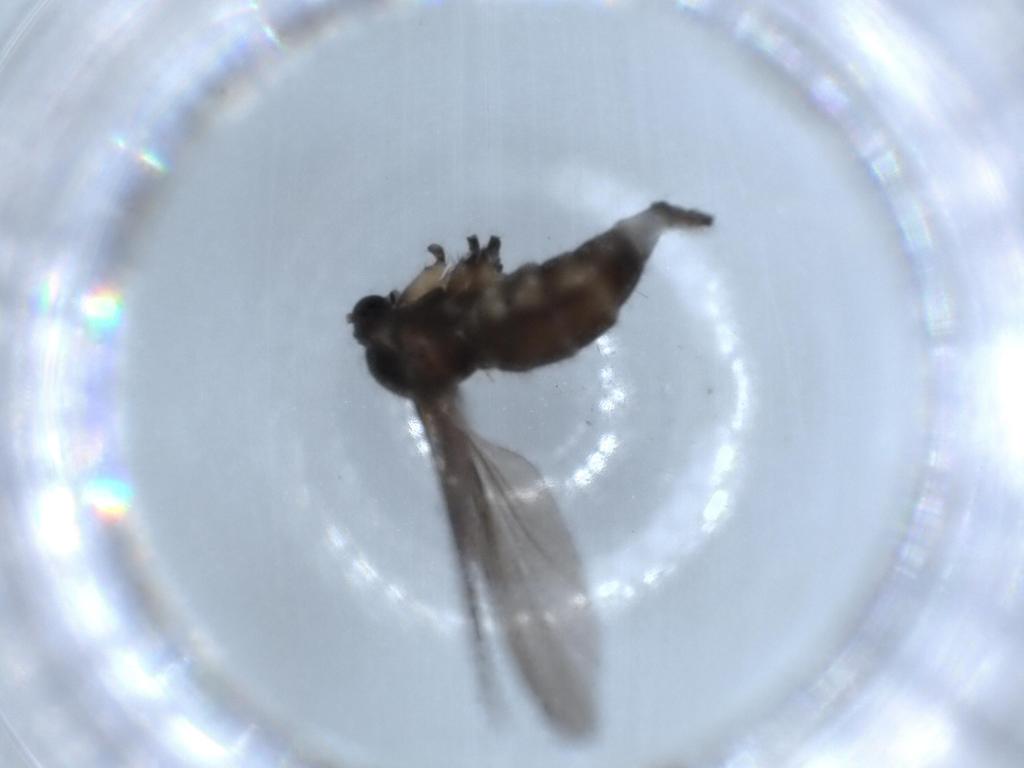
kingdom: Animalia
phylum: Arthropoda
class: Insecta
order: Diptera
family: Sciaridae
